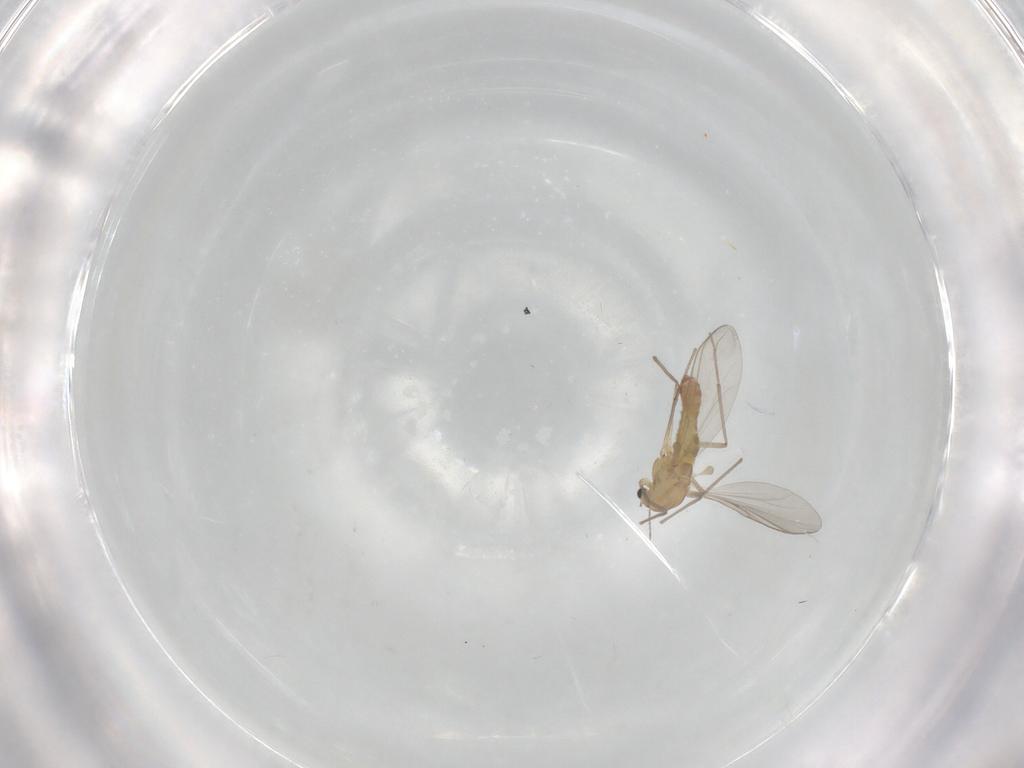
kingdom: Animalia
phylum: Arthropoda
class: Insecta
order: Diptera
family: Chironomidae
